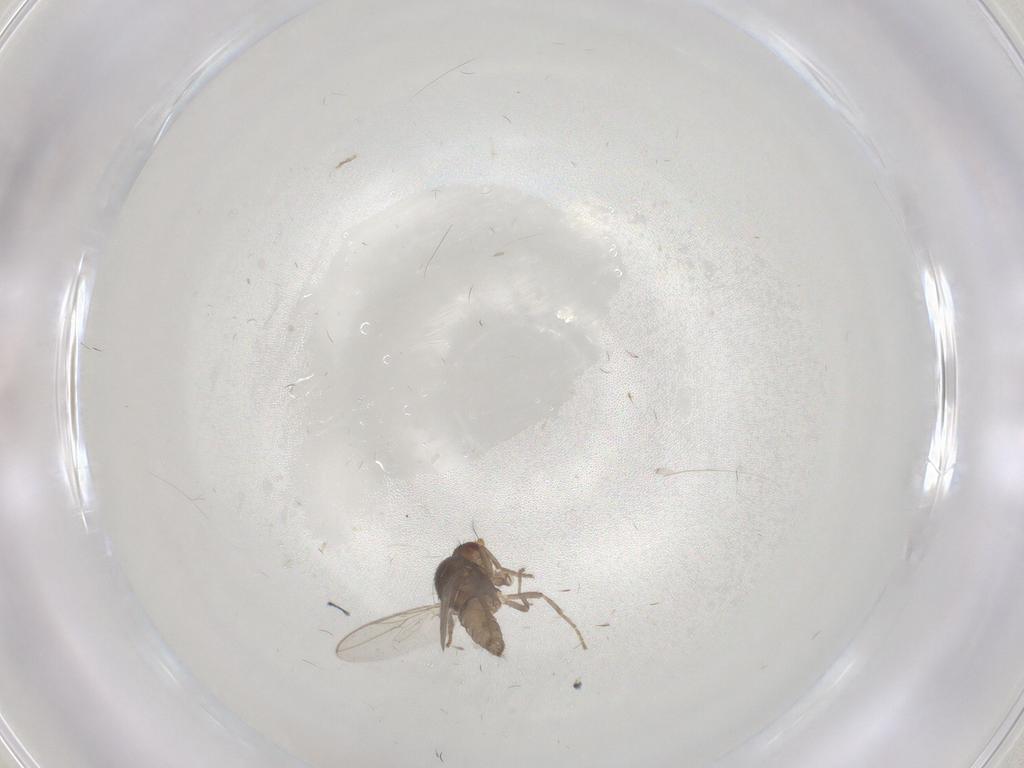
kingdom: Animalia
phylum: Arthropoda
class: Insecta
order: Diptera
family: Sphaeroceridae
